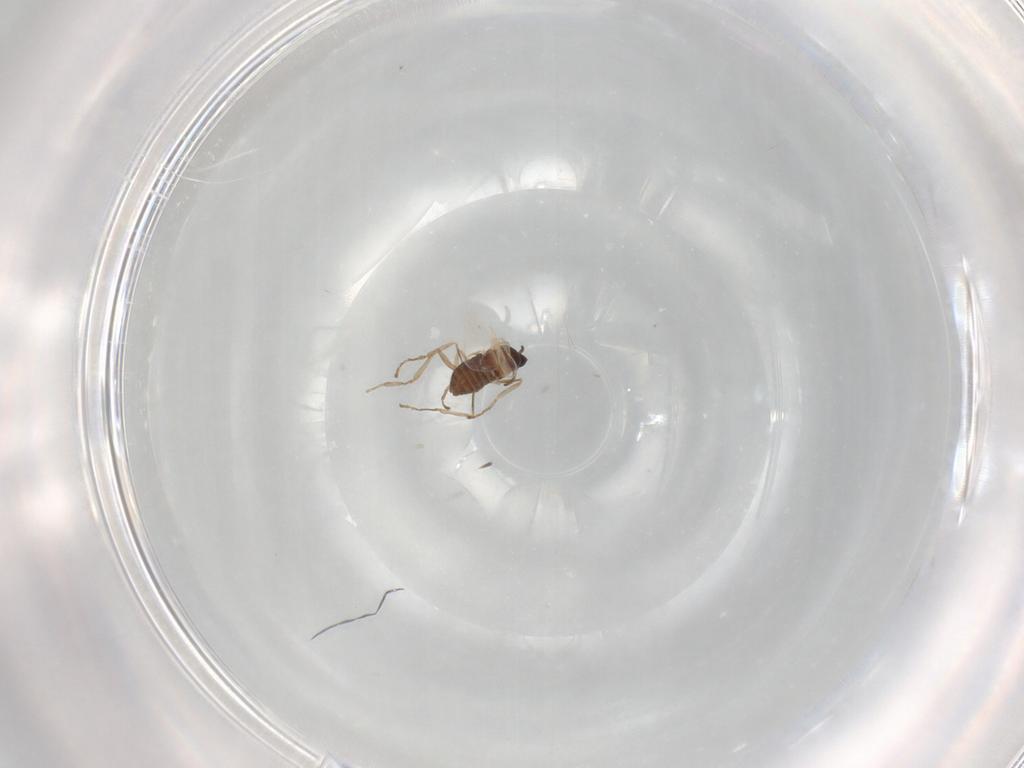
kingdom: Animalia
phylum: Arthropoda
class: Insecta
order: Diptera
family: Cecidomyiidae
